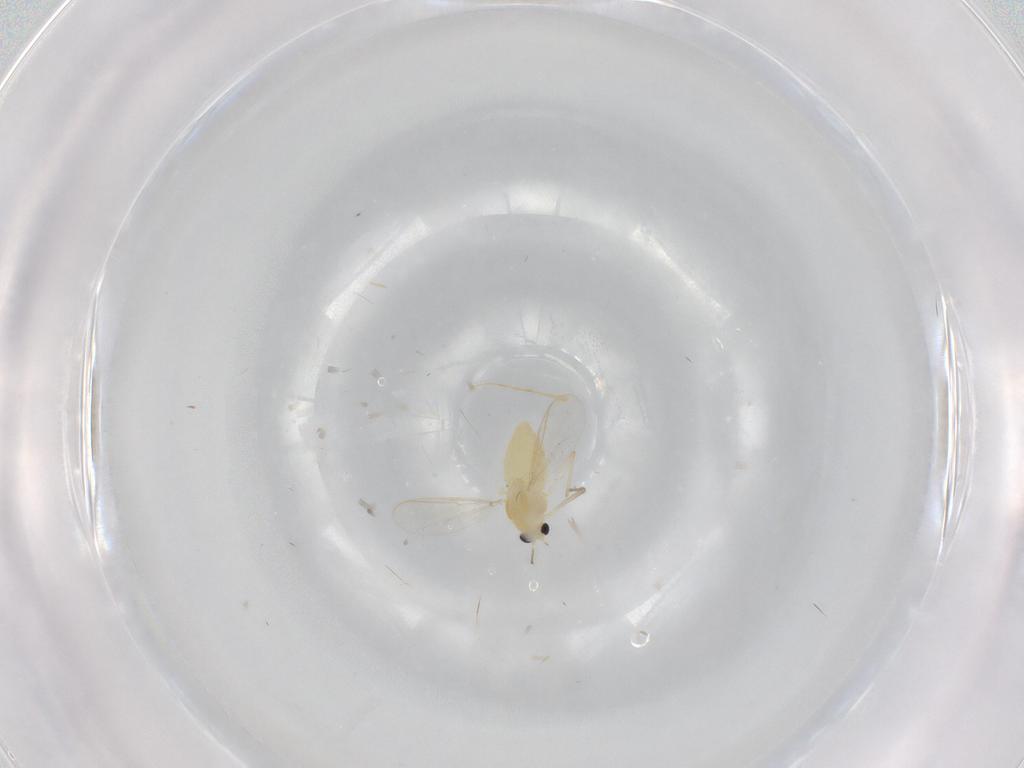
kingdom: Animalia
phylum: Arthropoda
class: Insecta
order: Diptera
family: Chironomidae
